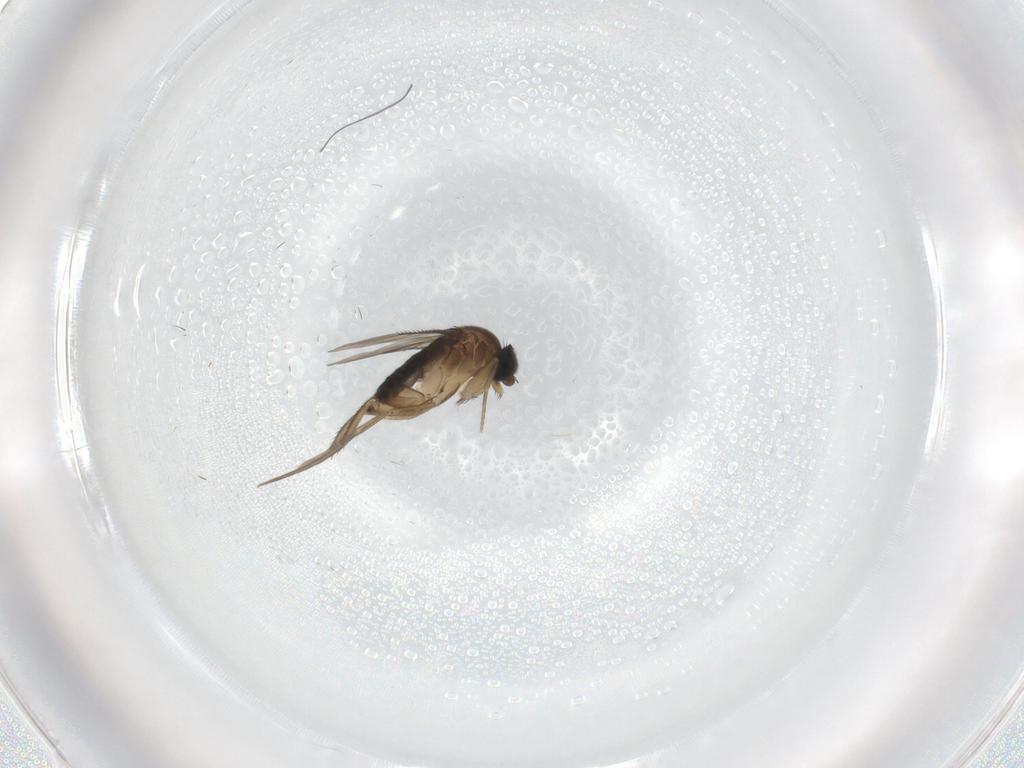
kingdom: Animalia
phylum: Arthropoda
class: Insecta
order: Diptera
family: Phoridae
